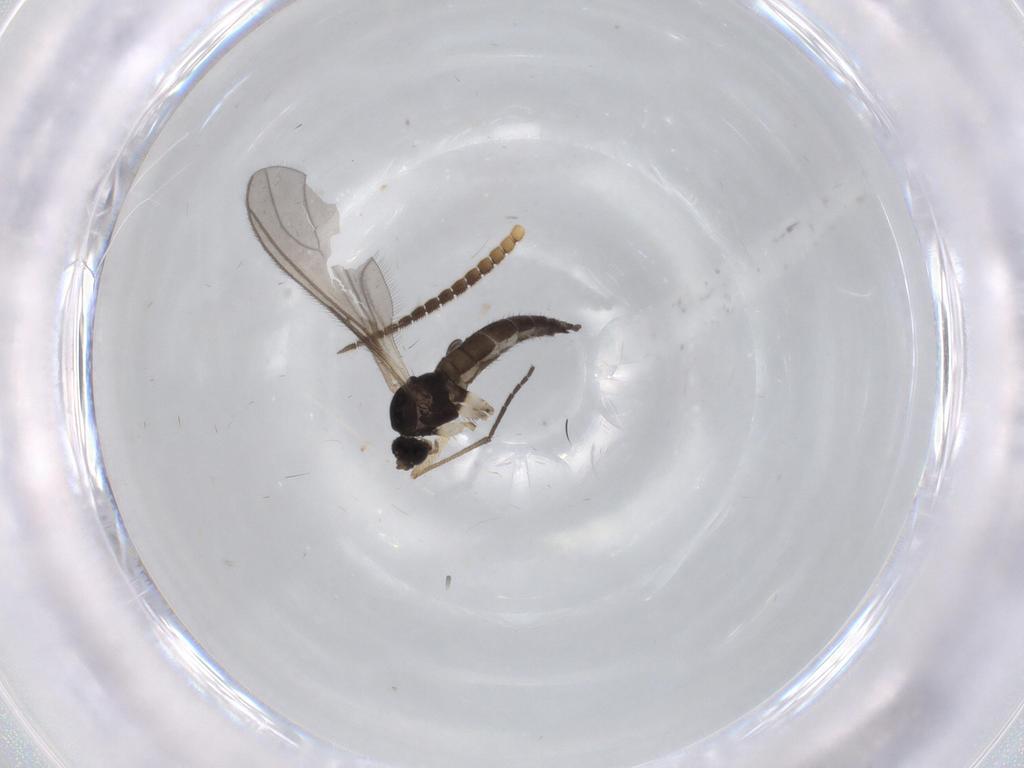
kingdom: Animalia
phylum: Arthropoda
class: Insecta
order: Diptera
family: Sciaridae
